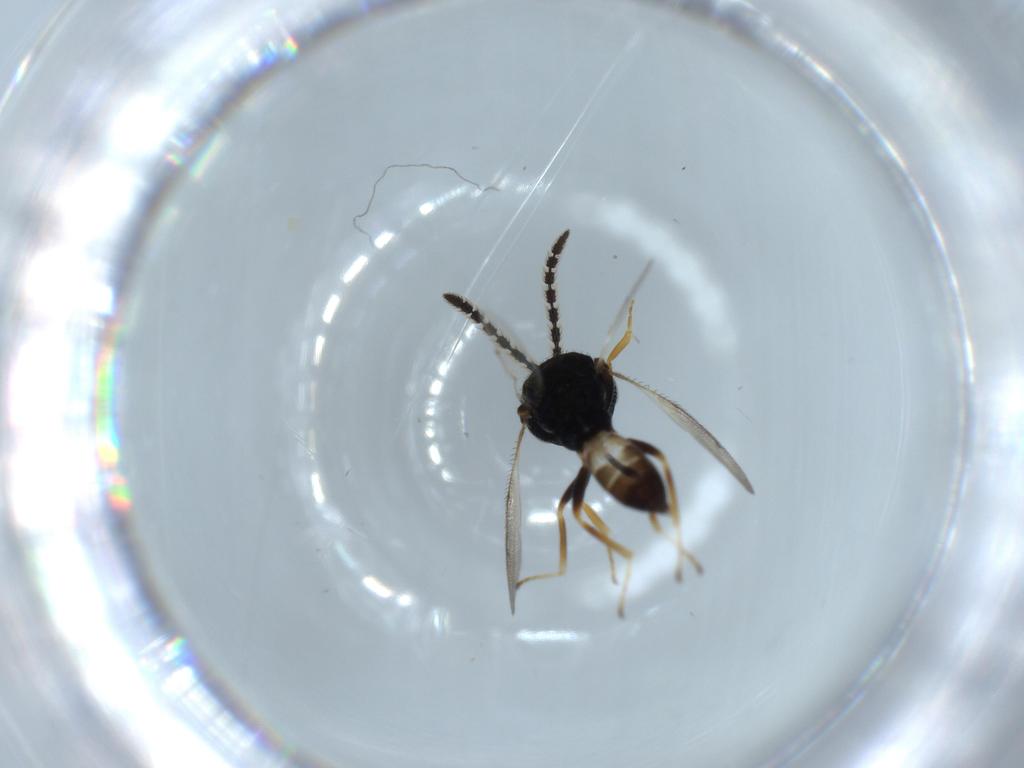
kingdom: Animalia
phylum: Arthropoda
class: Insecta
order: Hymenoptera
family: Pteromalidae
